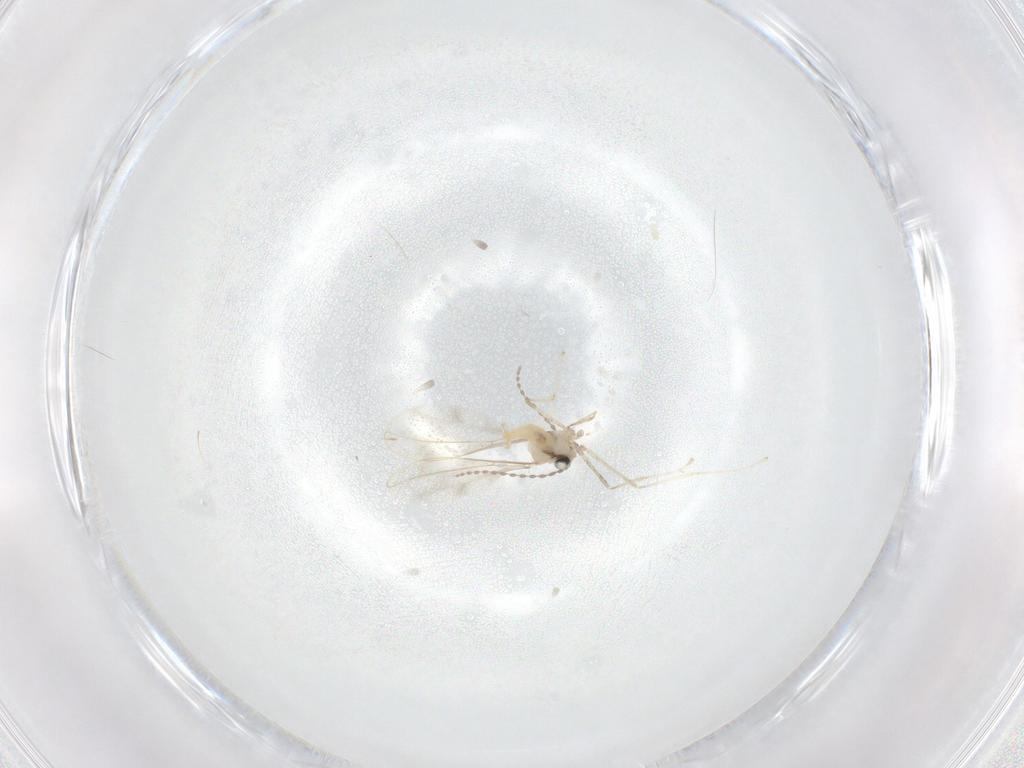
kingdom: Animalia
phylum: Arthropoda
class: Insecta
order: Diptera
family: Cecidomyiidae
